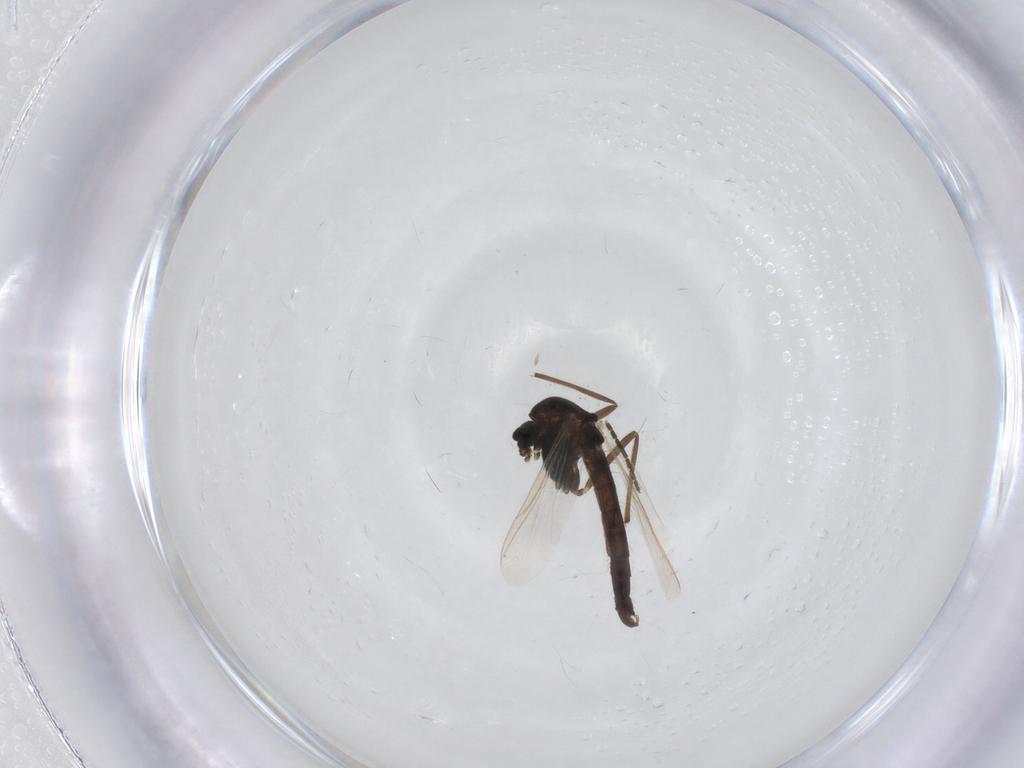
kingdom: Animalia
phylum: Arthropoda
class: Insecta
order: Diptera
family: Chironomidae
